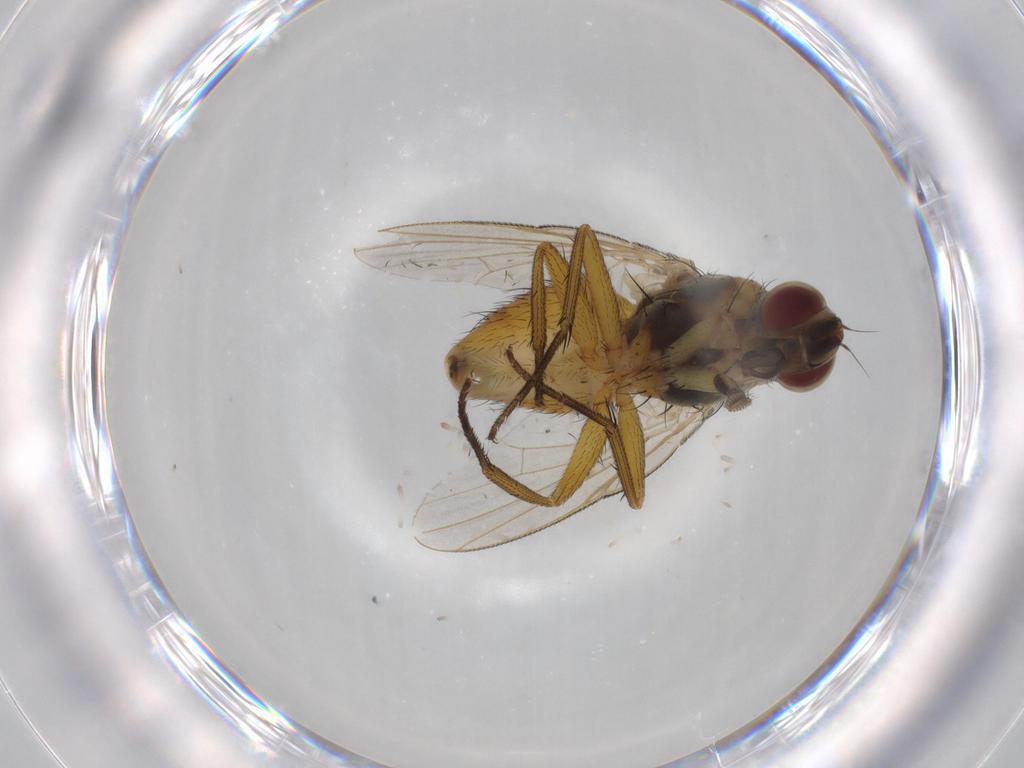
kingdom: Animalia
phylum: Arthropoda
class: Insecta
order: Diptera
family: Muscidae
